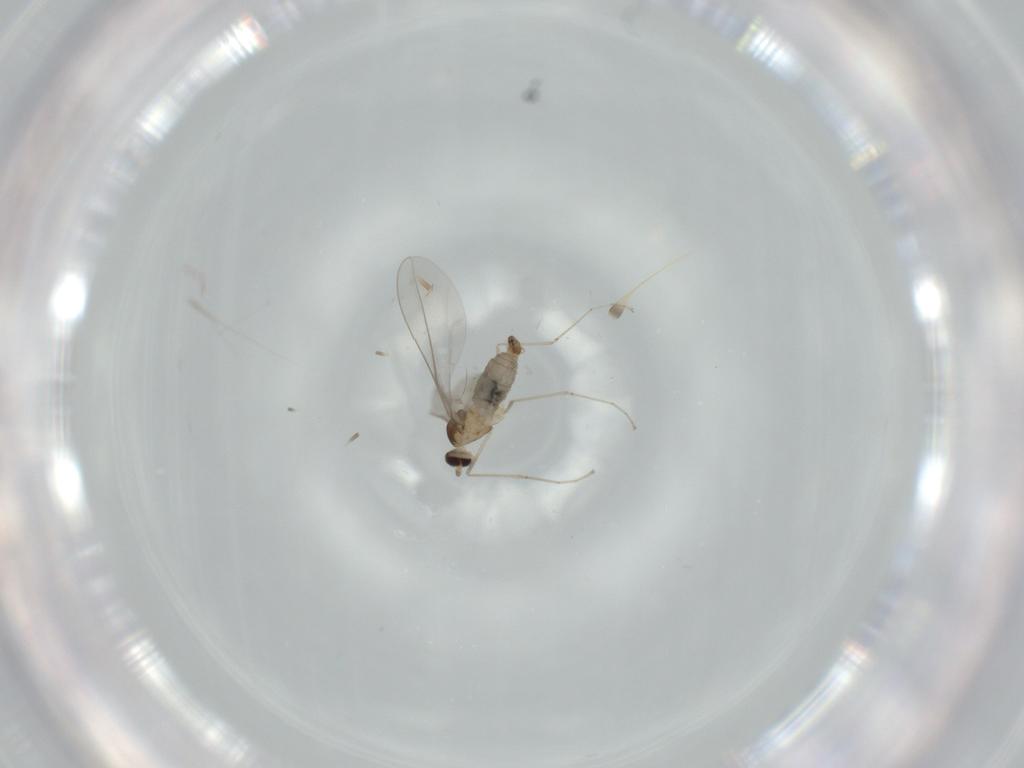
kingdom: Animalia
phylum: Arthropoda
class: Insecta
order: Diptera
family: Cecidomyiidae
